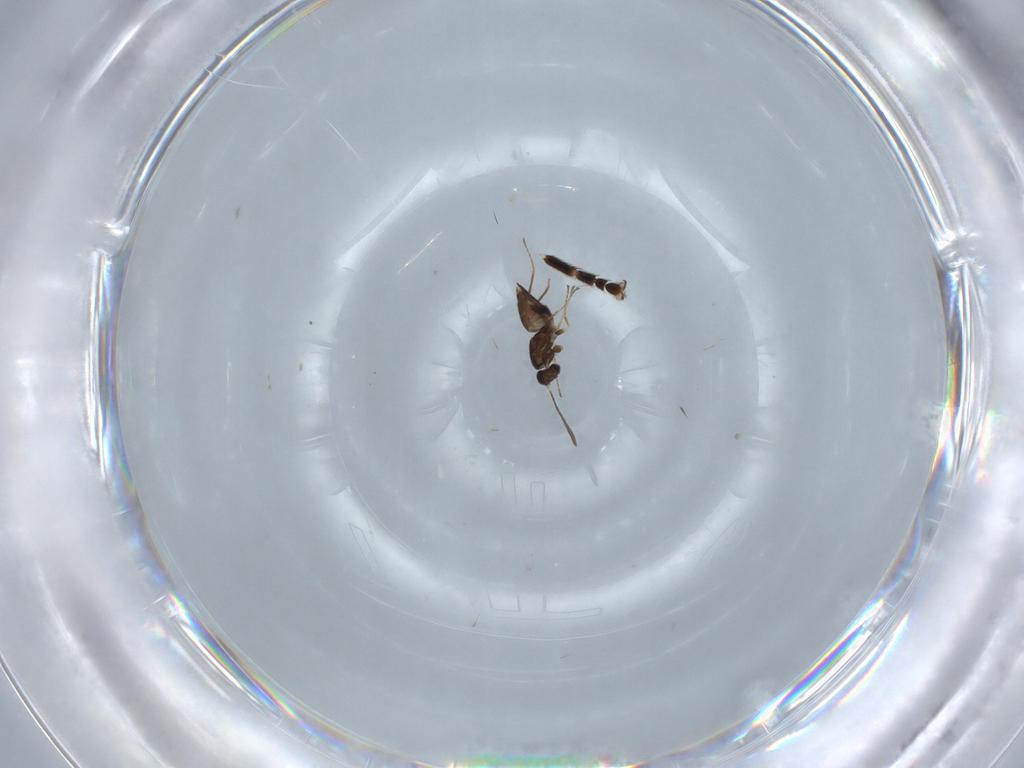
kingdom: Animalia
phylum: Arthropoda
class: Insecta
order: Hymenoptera
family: Mymaridae
